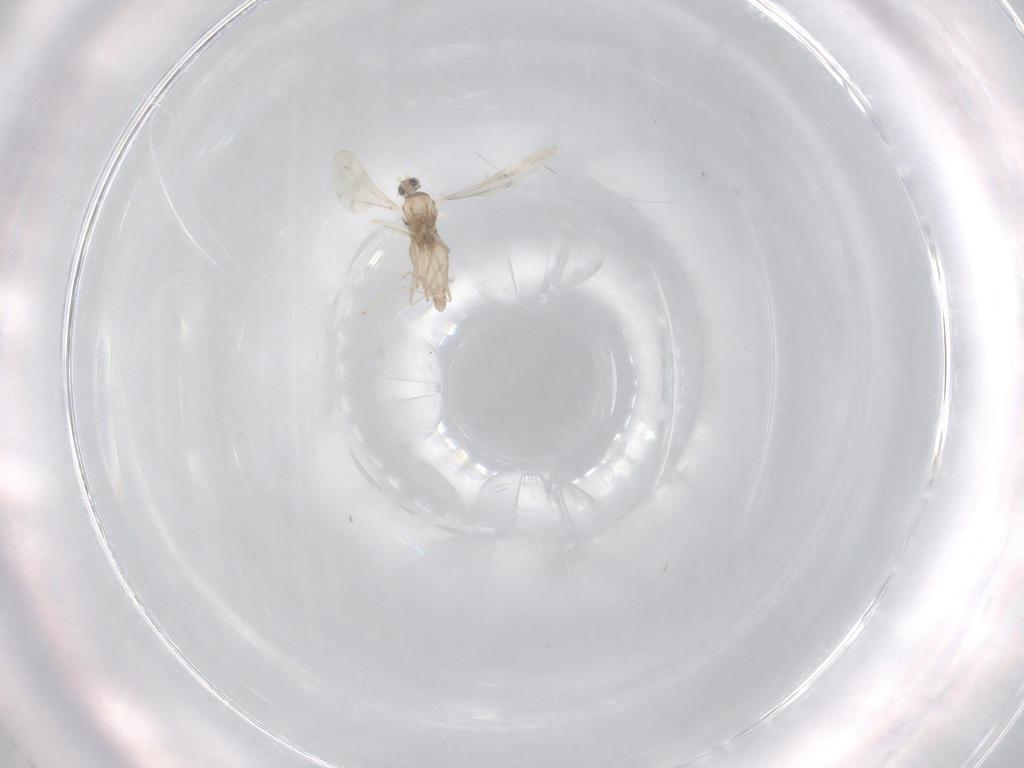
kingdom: Animalia
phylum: Arthropoda
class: Insecta
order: Diptera
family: Cecidomyiidae
